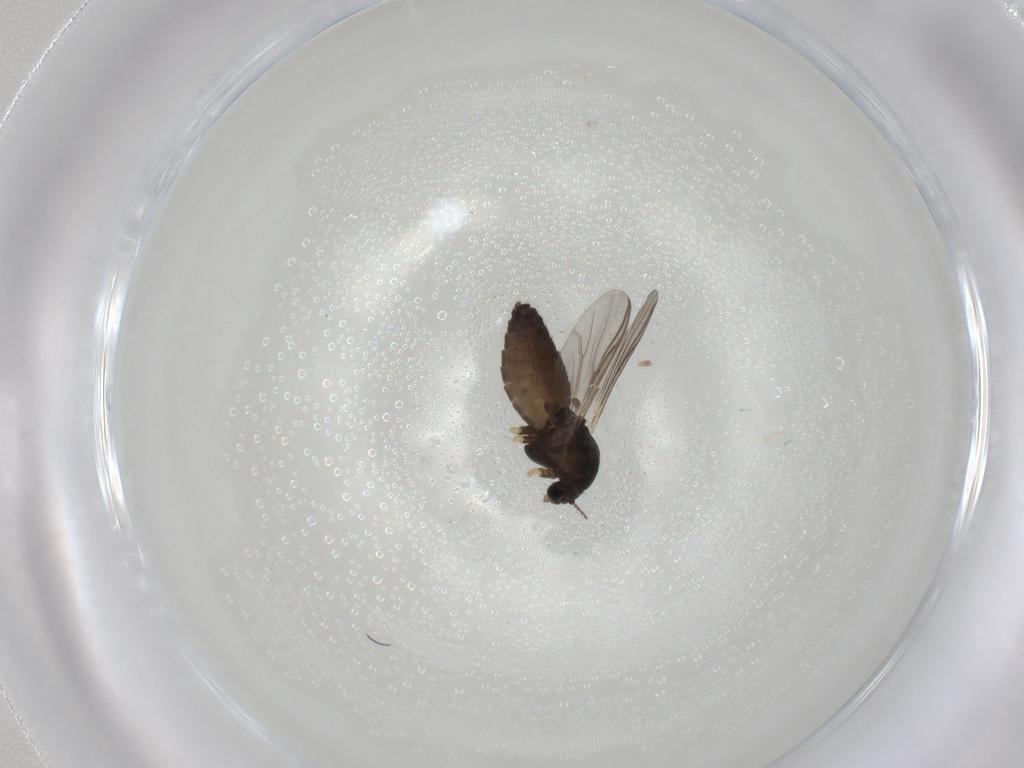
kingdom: Animalia
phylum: Arthropoda
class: Insecta
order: Diptera
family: Chironomidae
